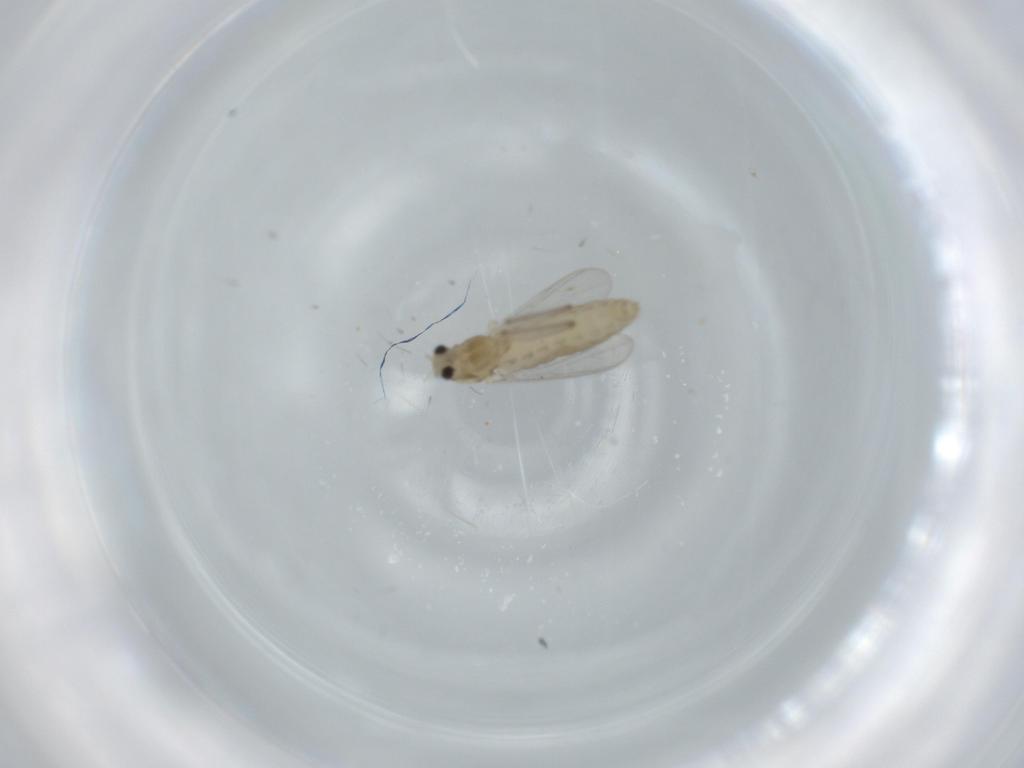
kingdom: Animalia
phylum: Arthropoda
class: Insecta
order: Diptera
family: Chironomidae
